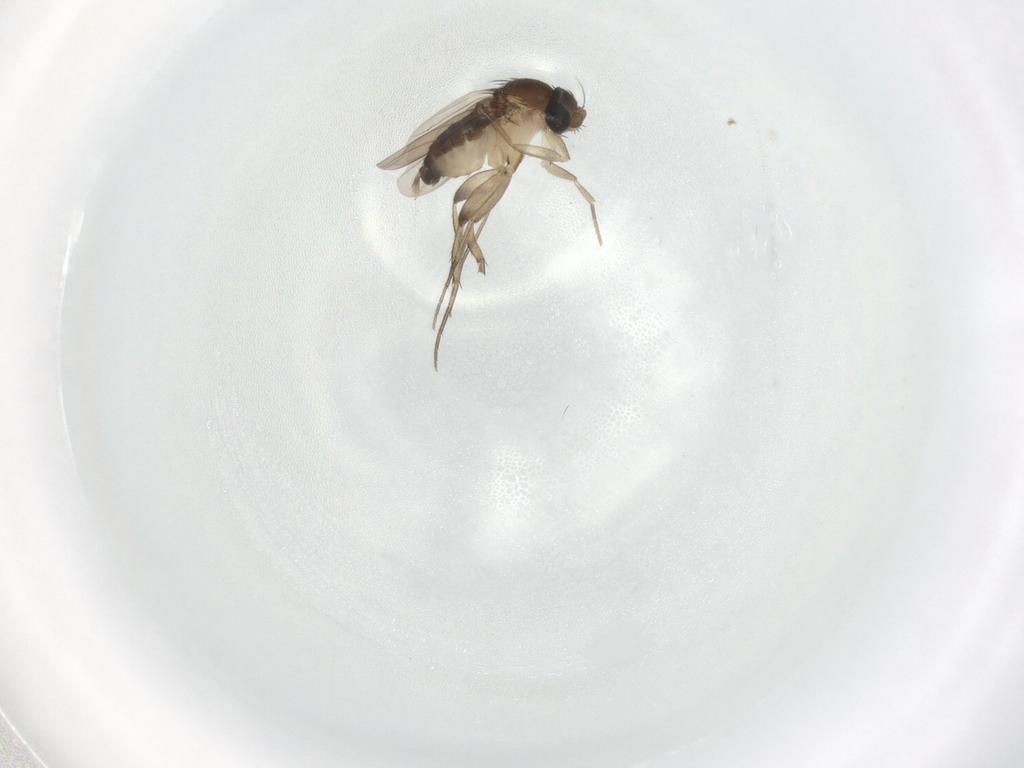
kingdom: Animalia
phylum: Arthropoda
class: Insecta
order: Diptera
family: Phoridae
